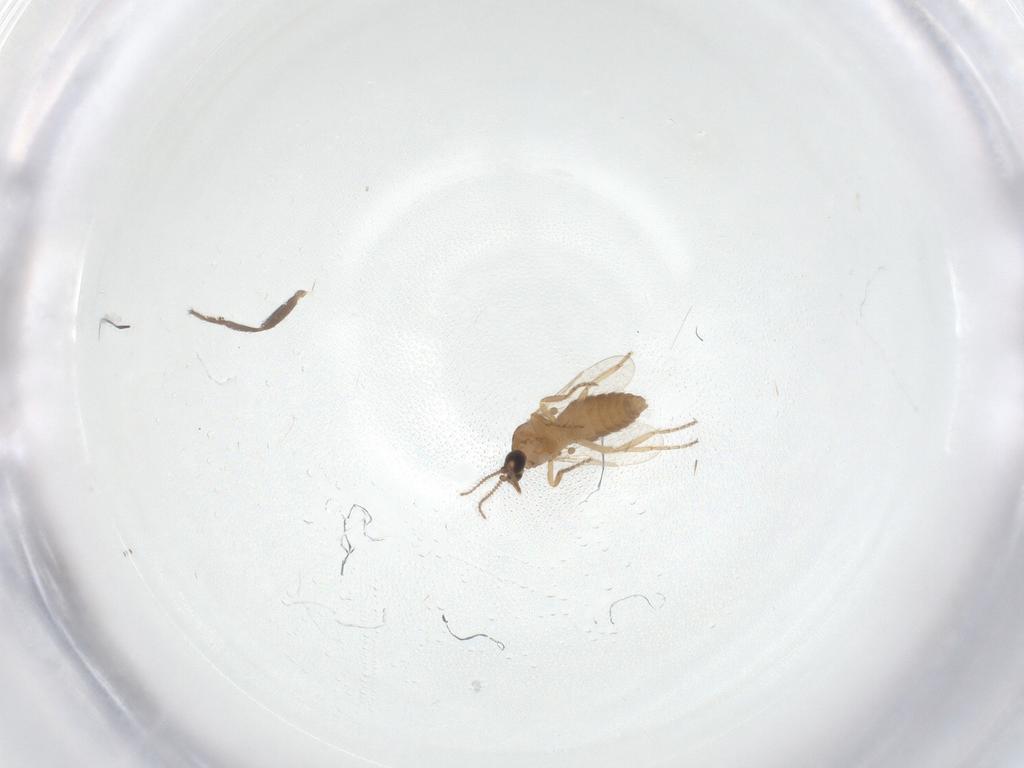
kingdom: Animalia
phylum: Arthropoda
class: Insecta
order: Diptera
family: Ceratopogonidae
